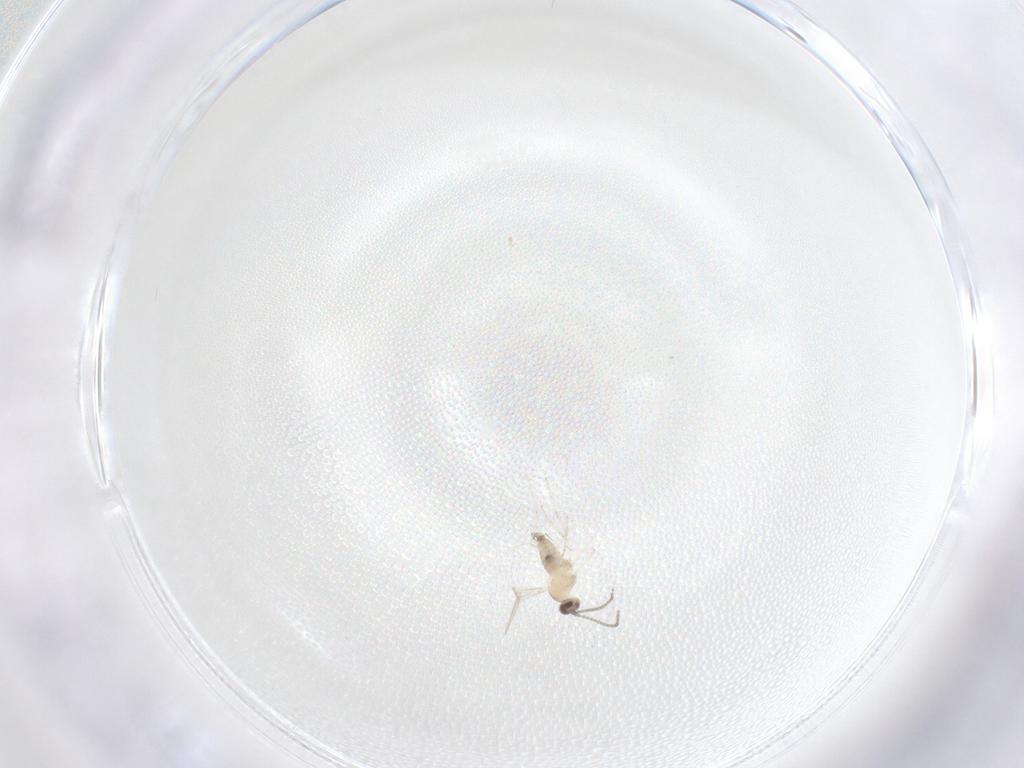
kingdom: Animalia
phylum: Arthropoda
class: Insecta
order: Diptera
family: Cecidomyiidae
